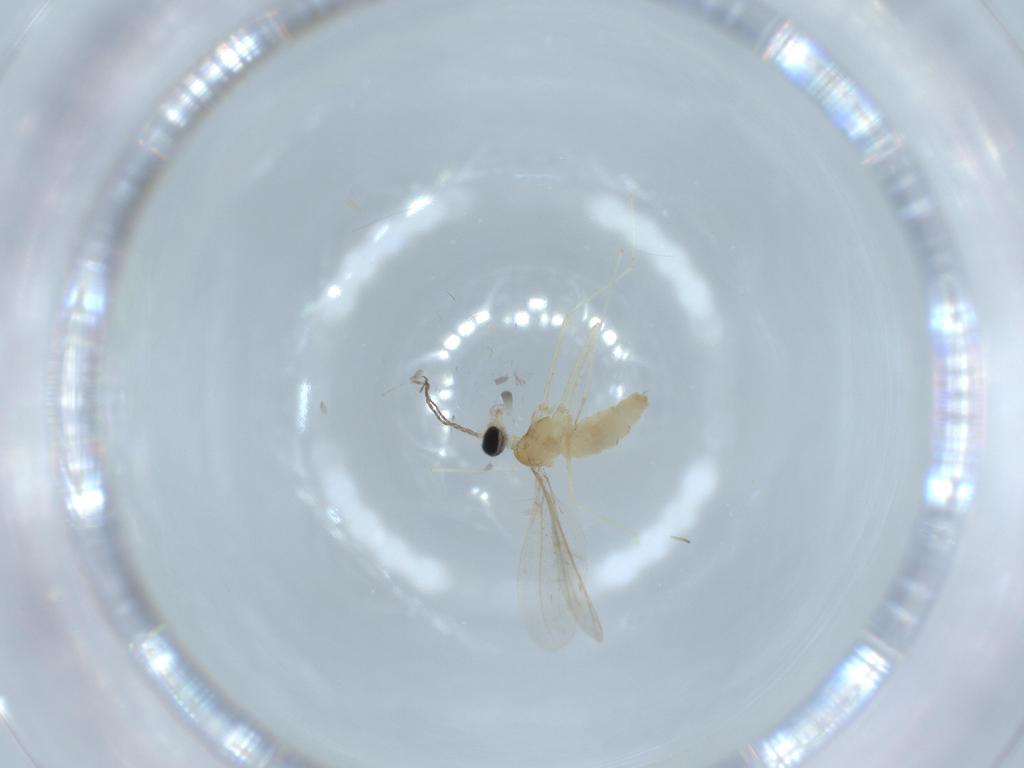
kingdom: Animalia
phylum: Arthropoda
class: Insecta
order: Diptera
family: Cecidomyiidae
